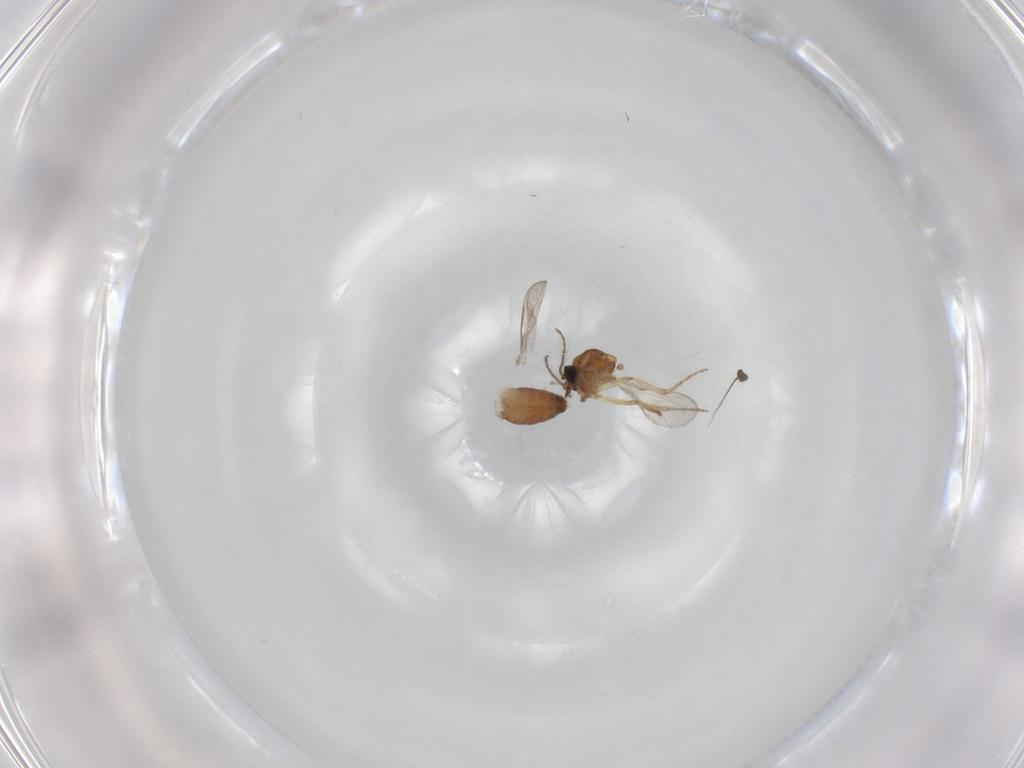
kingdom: Animalia
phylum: Arthropoda
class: Insecta
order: Diptera
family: Dolichopodidae
